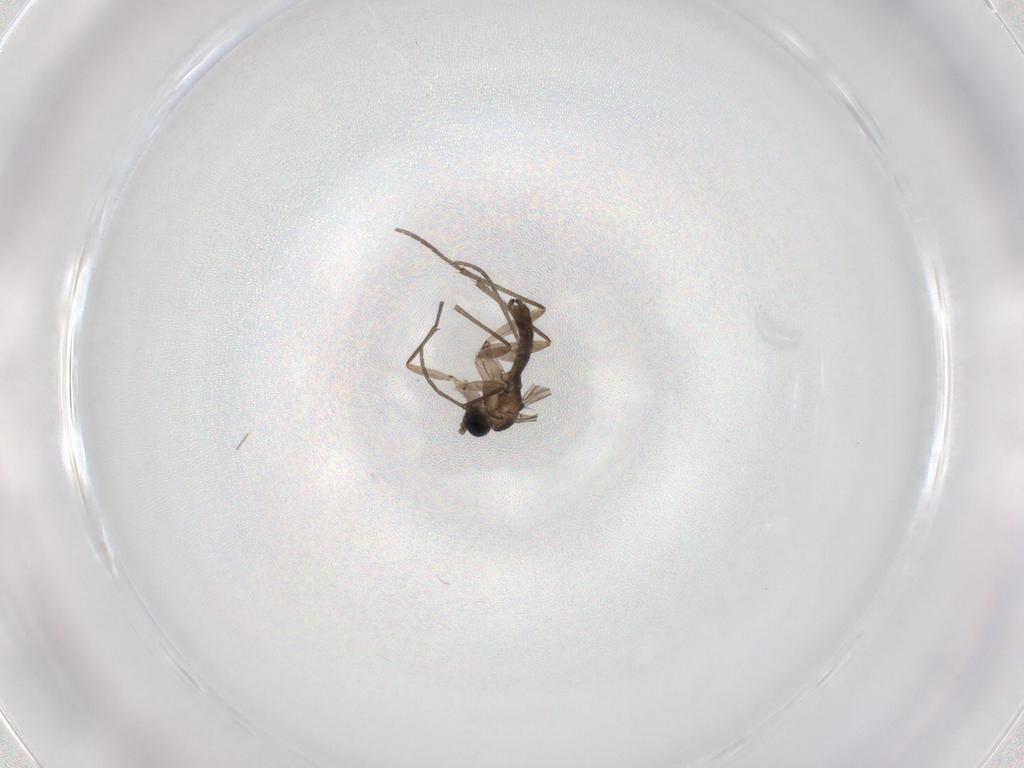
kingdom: Animalia
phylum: Arthropoda
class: Insecta
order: Diptera
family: Sciaridae
